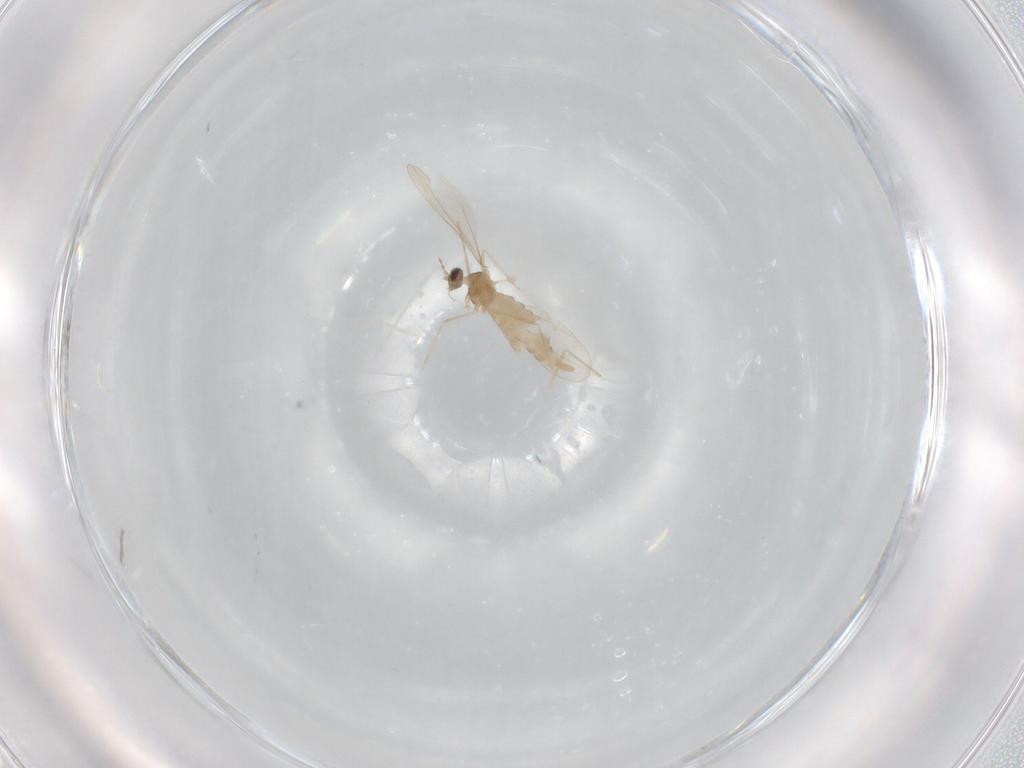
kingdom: Animalia
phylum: Arthropoda
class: Insecta
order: Diptera
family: Cecidomyiidae
